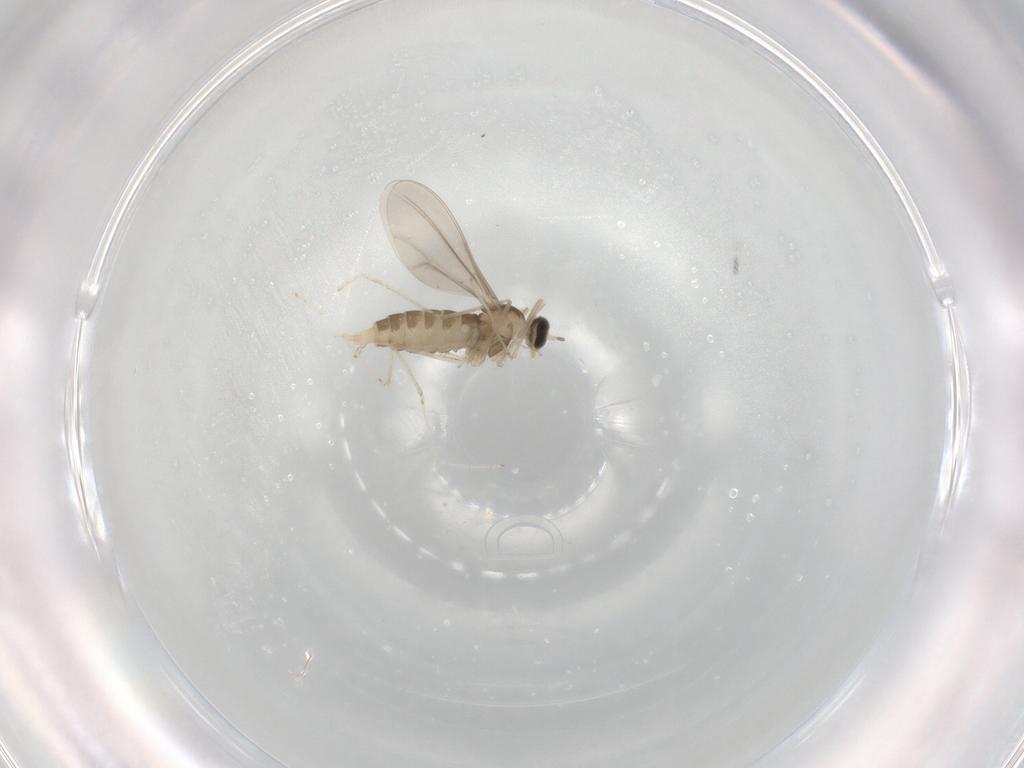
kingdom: Animalia
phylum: Arthropoda
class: Insecta
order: Diptera
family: Cecidomyiidae
